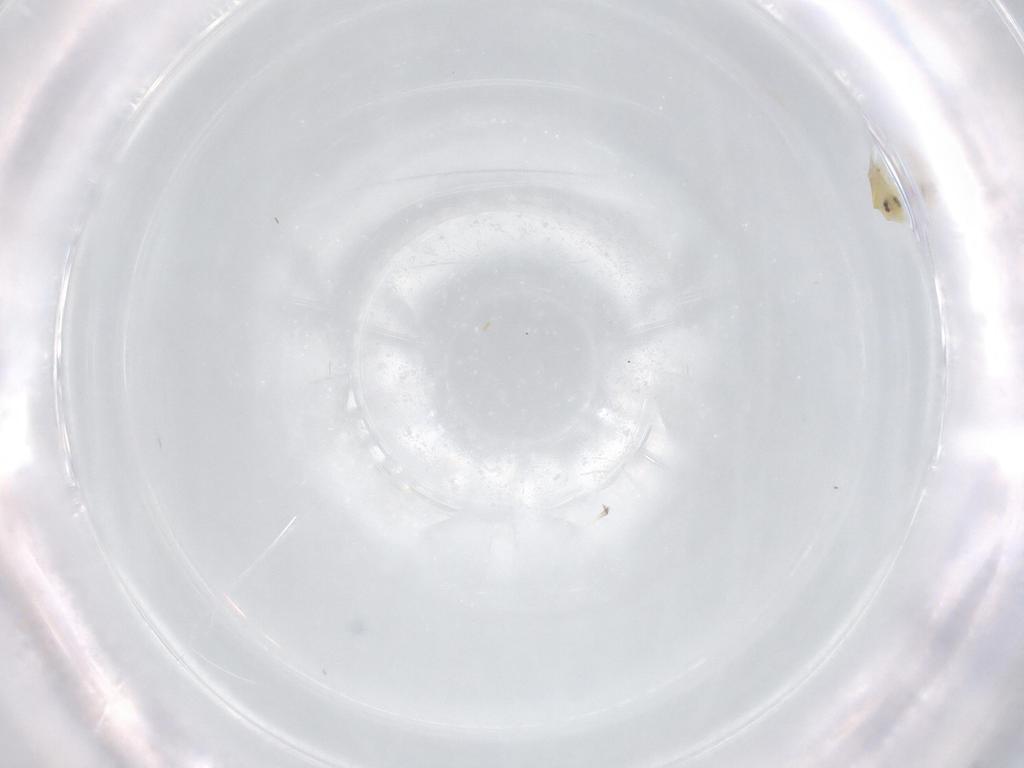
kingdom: Animalia
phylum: Arthropoda
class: Insecta
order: Hemiptera
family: Aleyrodidae
